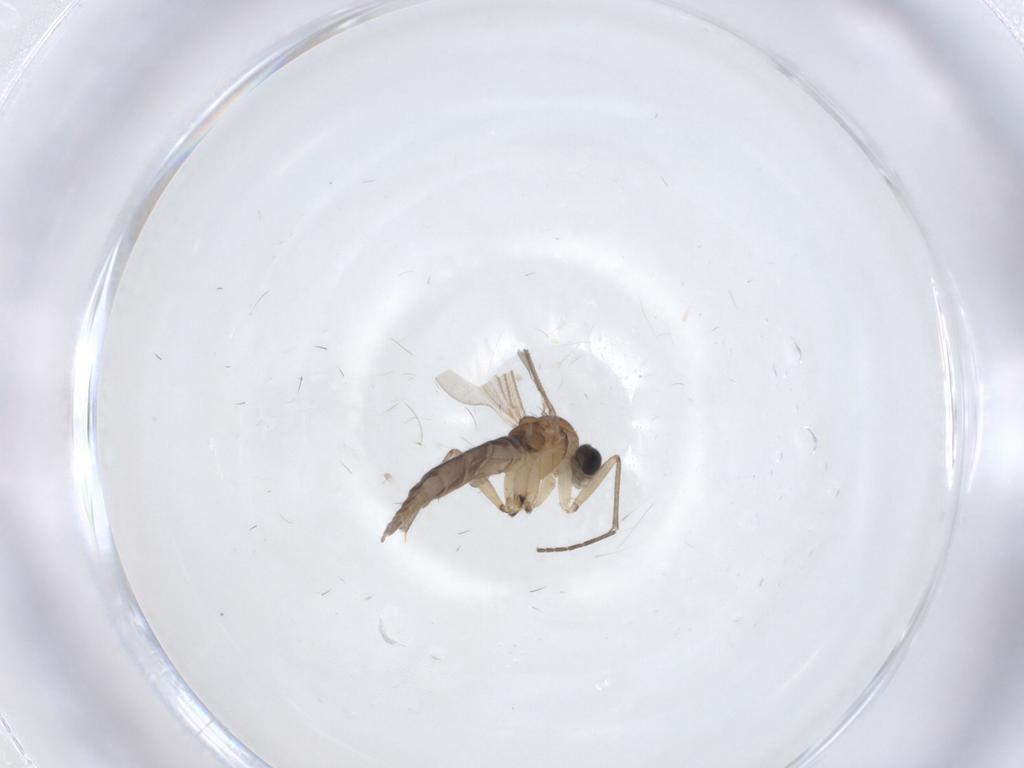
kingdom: Animalia
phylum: Arthropoda
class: Insecta
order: Diptera
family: Sciaridae
